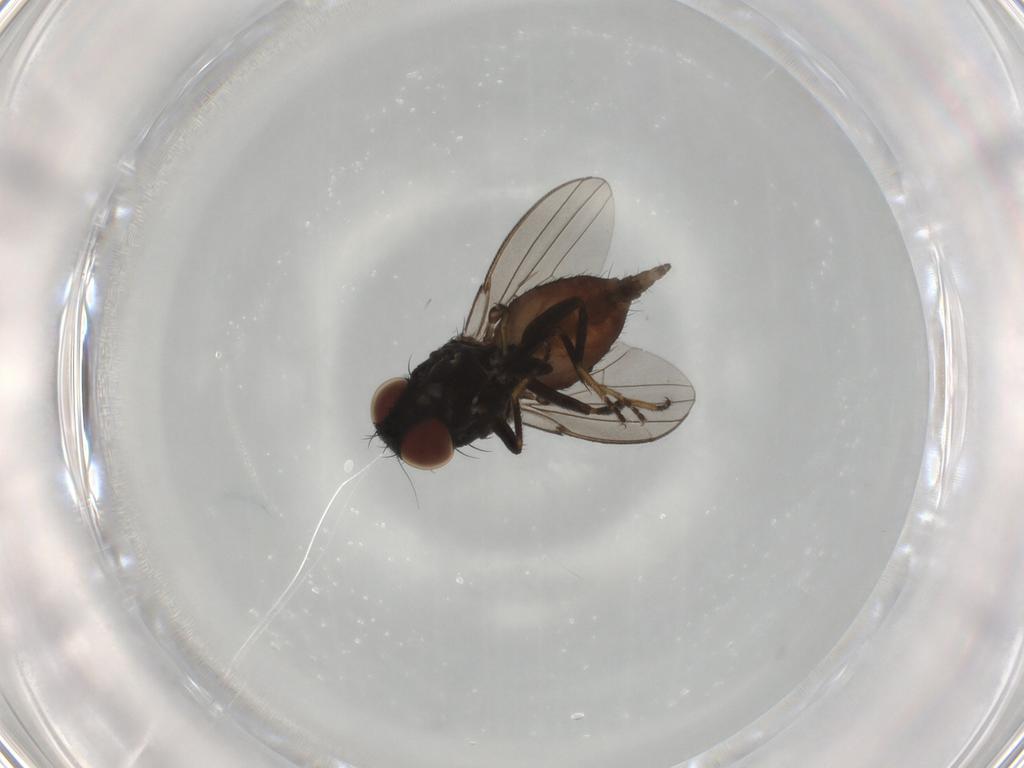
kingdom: Animalia
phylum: Arthropoda
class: Insecta
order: Diptera
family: Milichiidae
